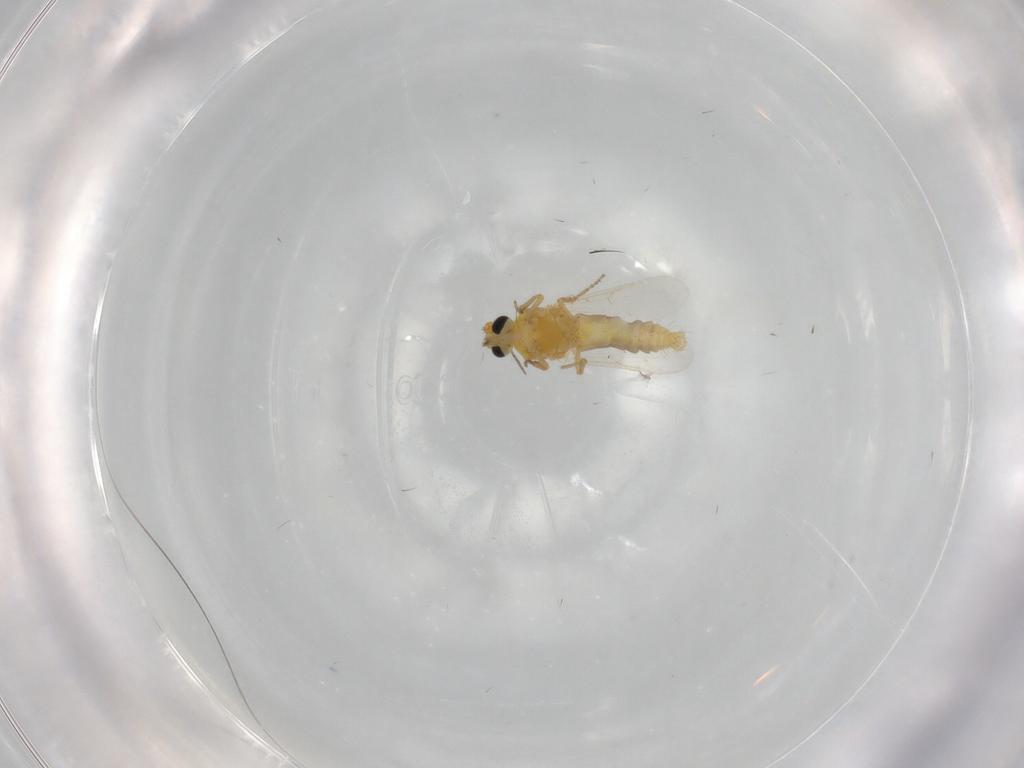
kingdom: Animalia
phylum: Arthropoda
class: Insecta
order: Diptera
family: Ceratopogonidae
